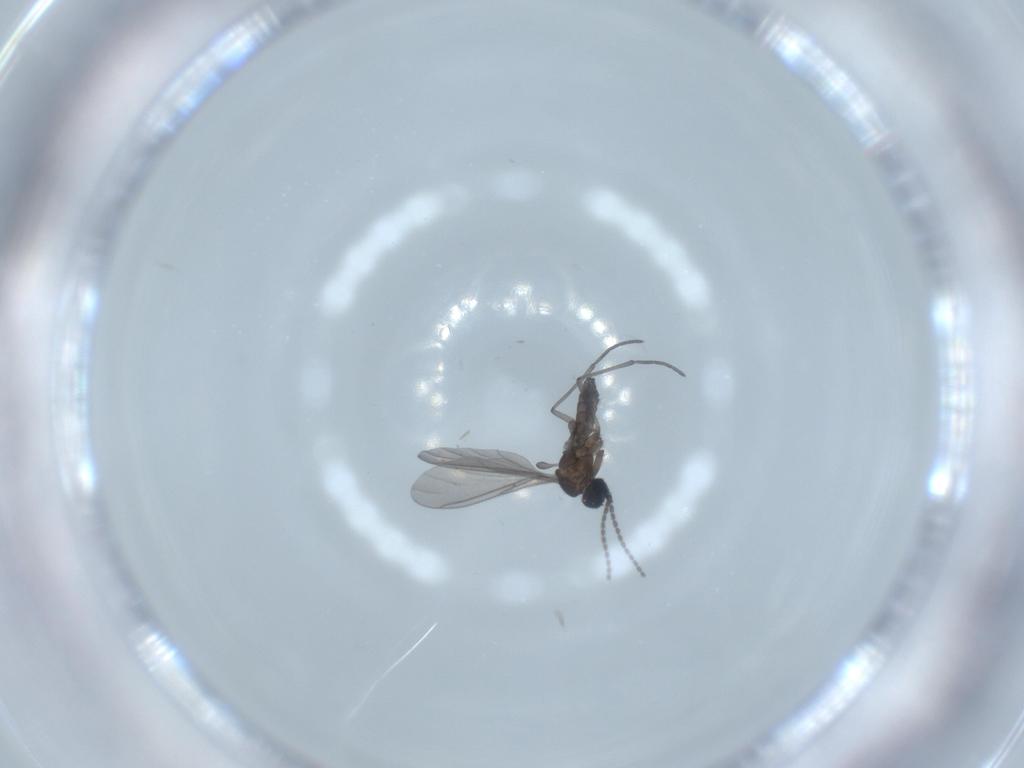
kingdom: Animalia
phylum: Arthropoda
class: Insecta
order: Diptera
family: Sciaridae
